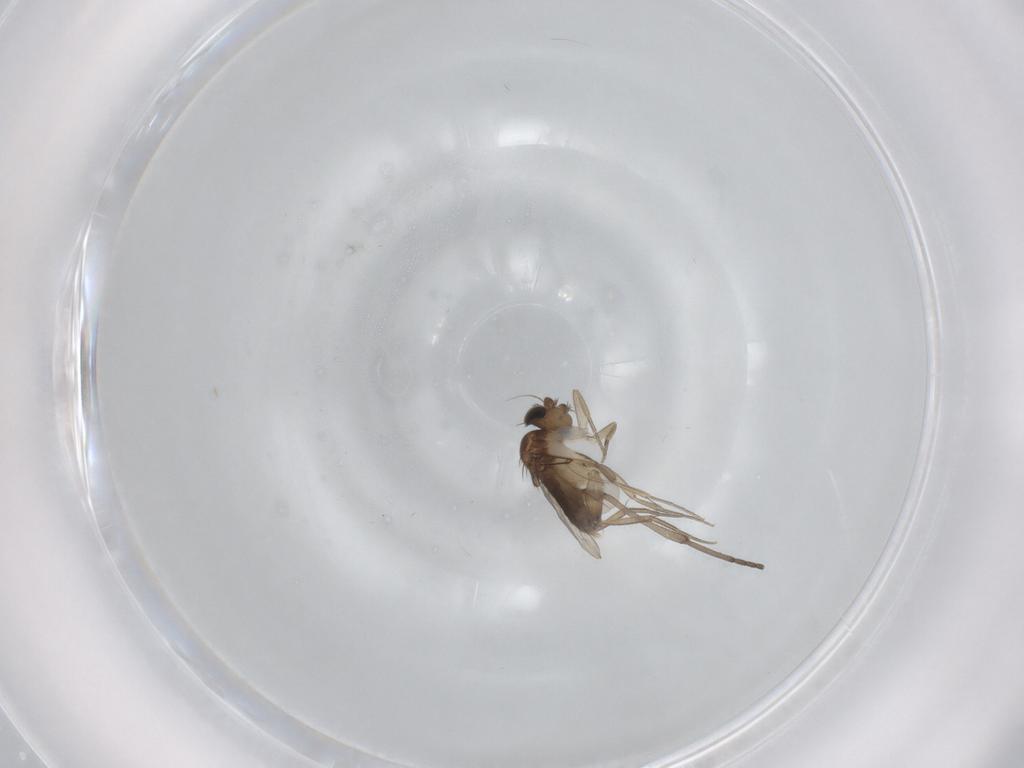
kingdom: Animalia
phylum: Arthropoda
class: Insecta
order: Diptera
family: Phoridae
